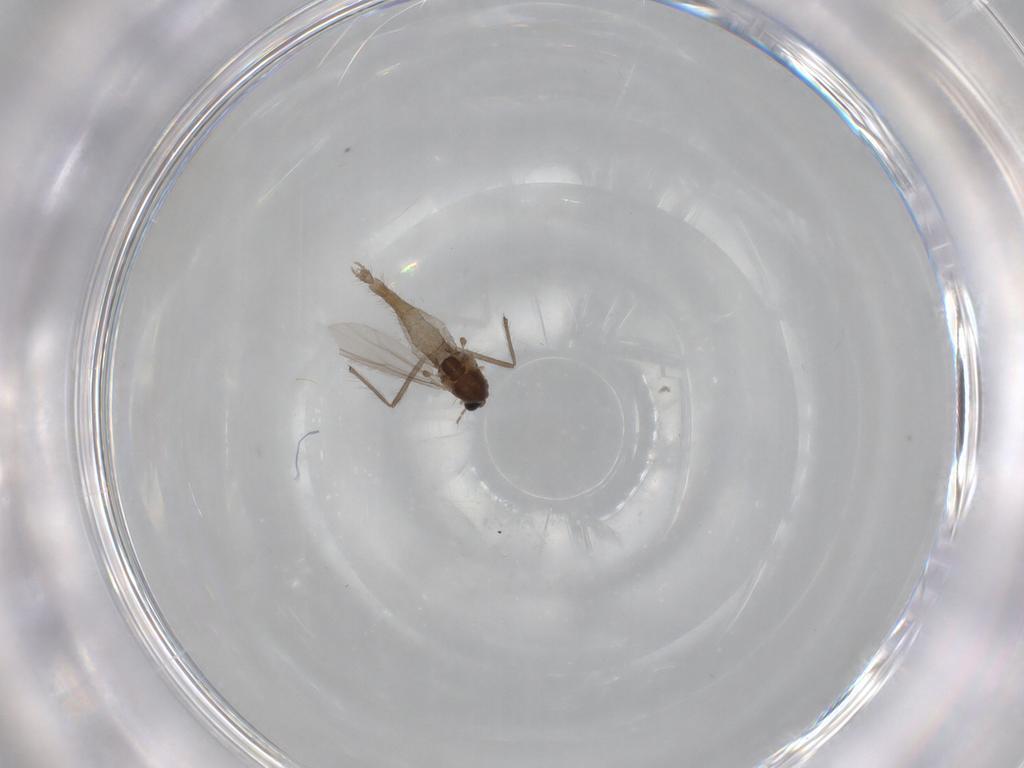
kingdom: Animalia
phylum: Arthropoda
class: Insecta
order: Diptera
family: Chironomidae
